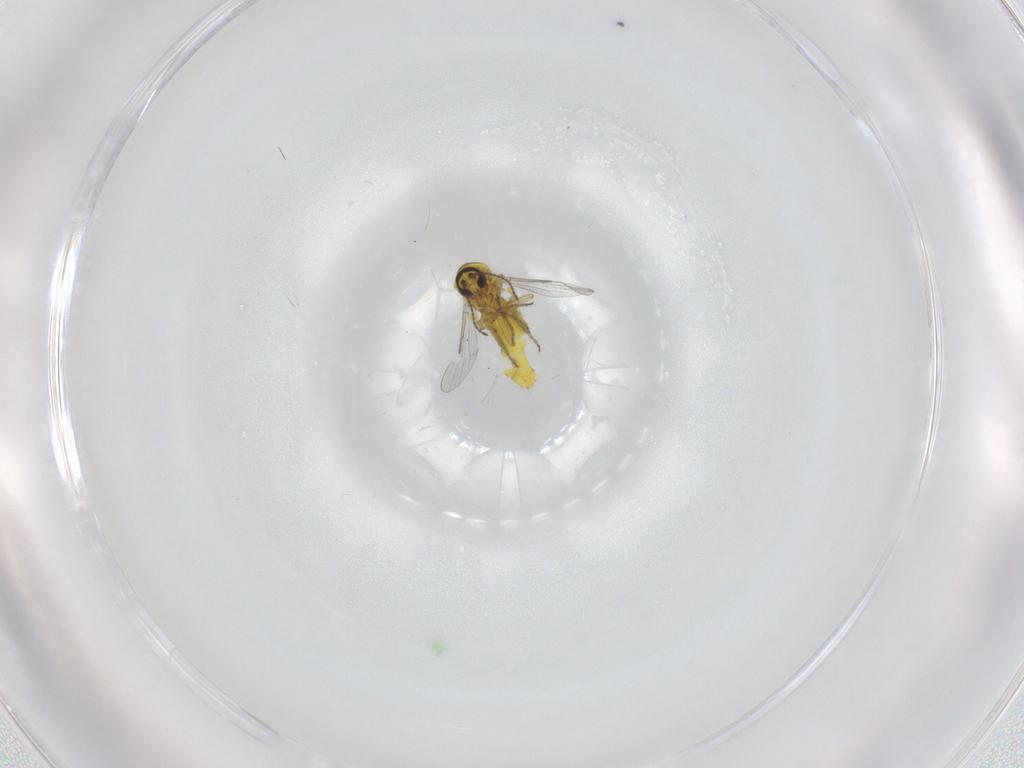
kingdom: Animalia
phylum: Arthropoda
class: Insecta
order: Diptera
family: Ceratopogonidae
